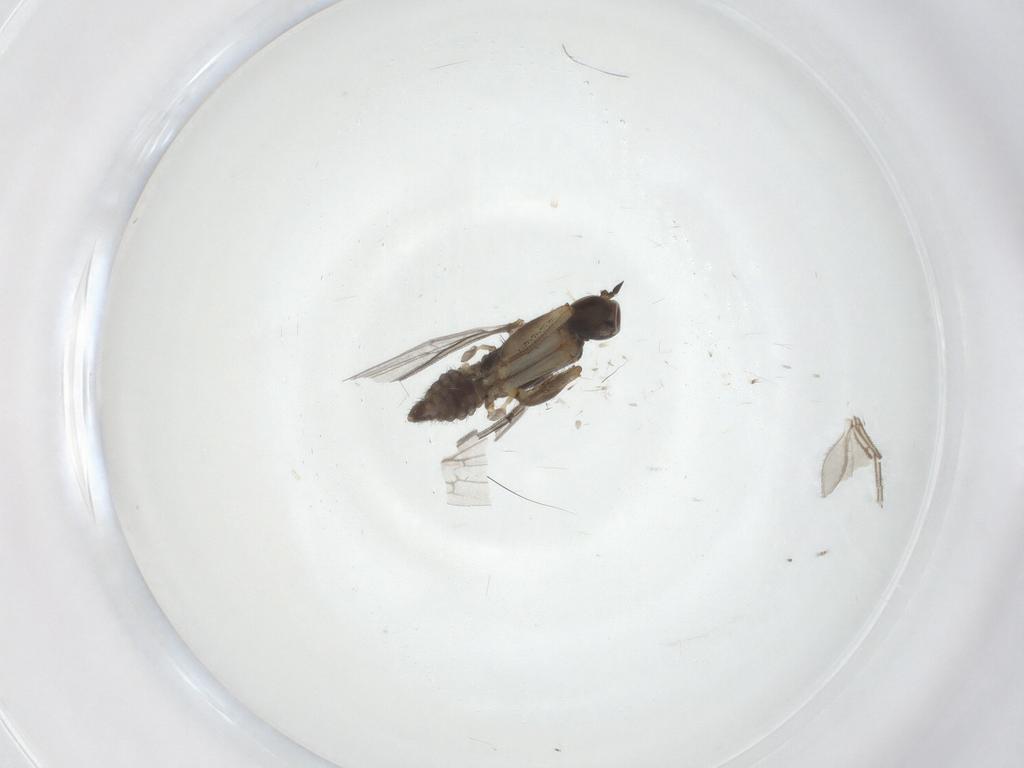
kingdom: Animalia
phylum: Arthropoda
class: Insecta
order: Diptera
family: Empididae
